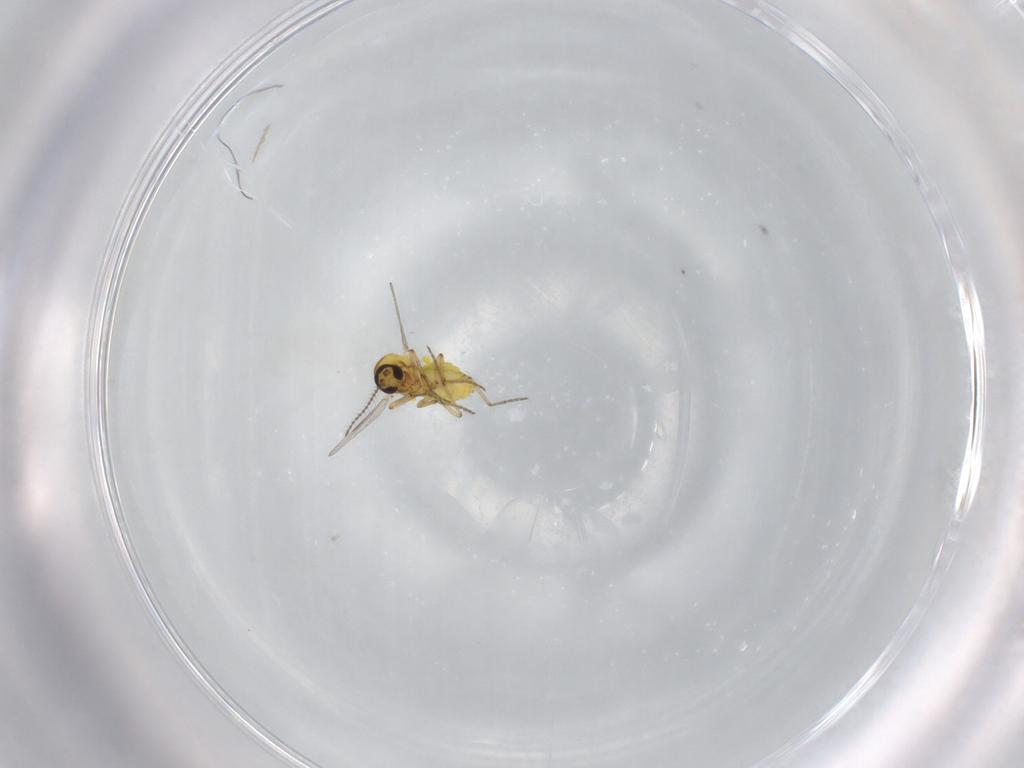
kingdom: Animalia
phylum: Arthropoda
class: Insecta
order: Diptera
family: Ceratopogonidae
